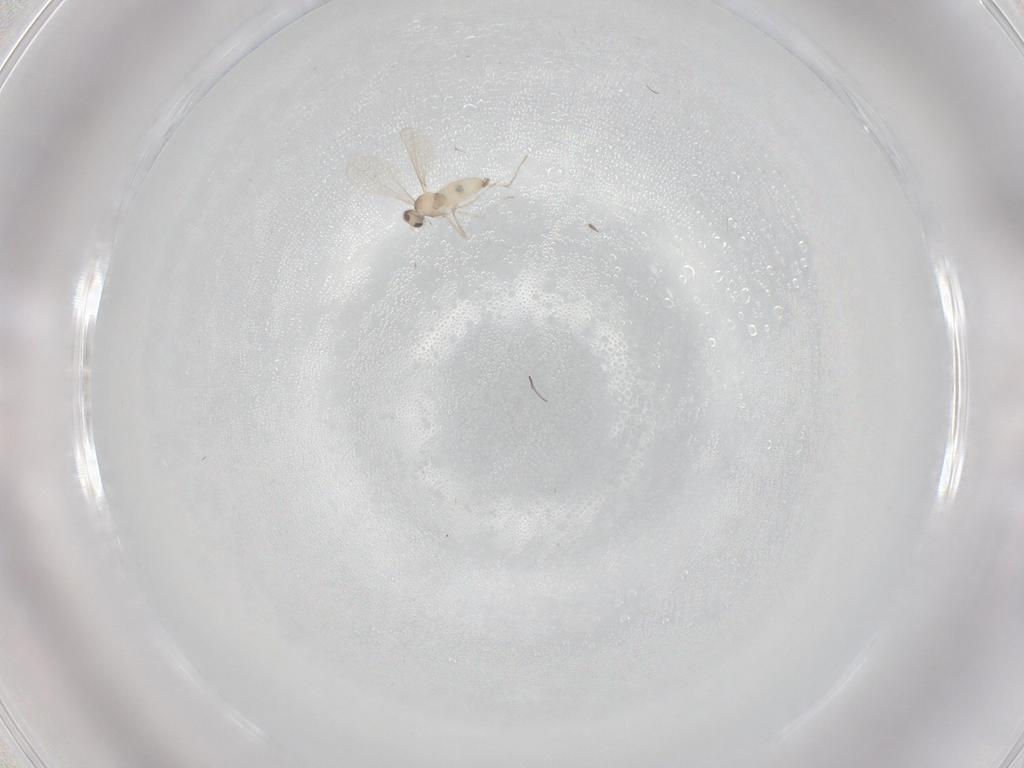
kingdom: Animalia
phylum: Arthropoda
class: Insecta
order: Diptera
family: Cecidomyiidae
